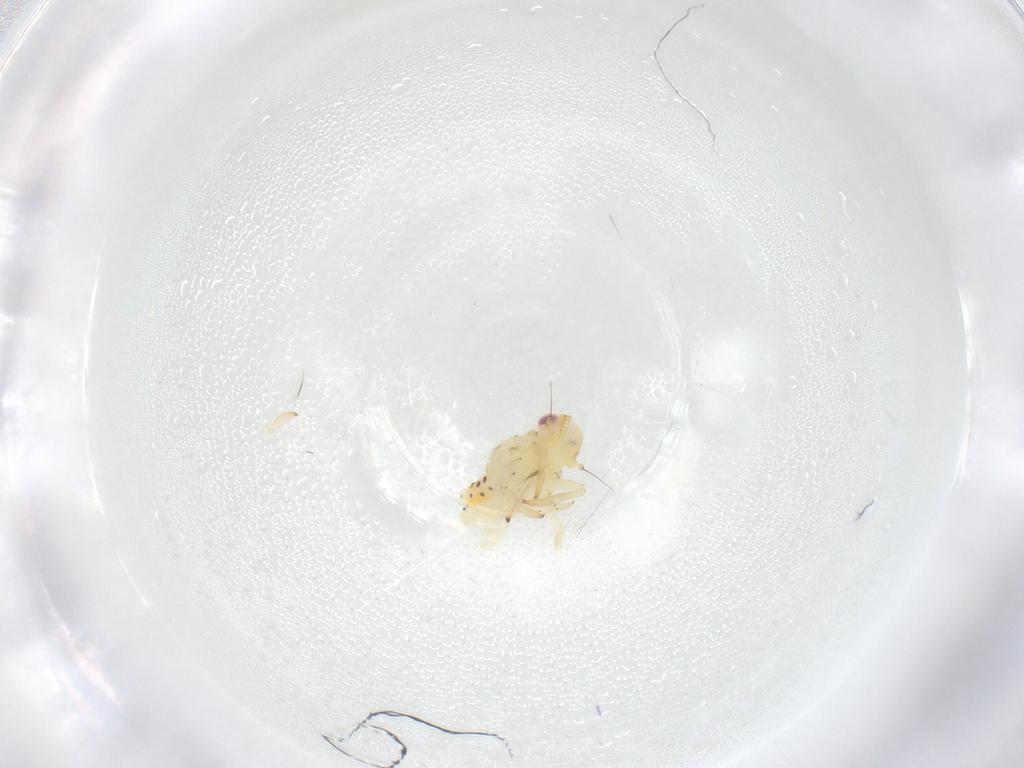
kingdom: Animalia
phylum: Arthropoda
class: Insecta
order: Hemiptera
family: Tropiduchidae
